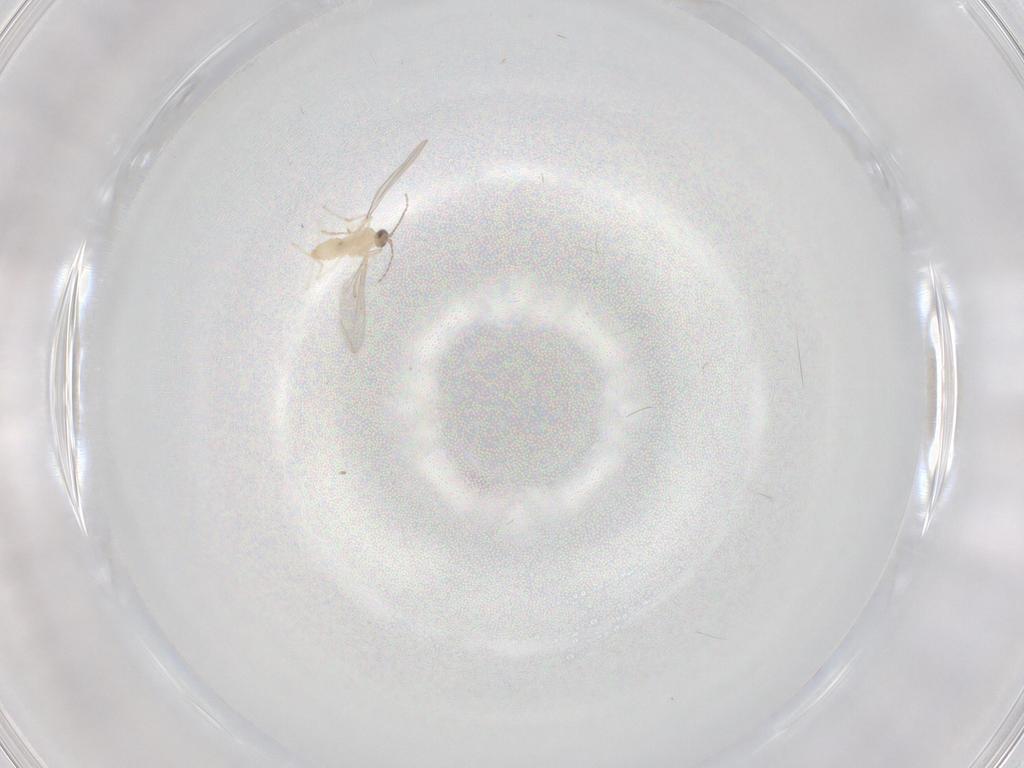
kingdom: Animalia
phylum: Arthropoda
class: Insecta
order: Diptera
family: Cecidomyiidae
